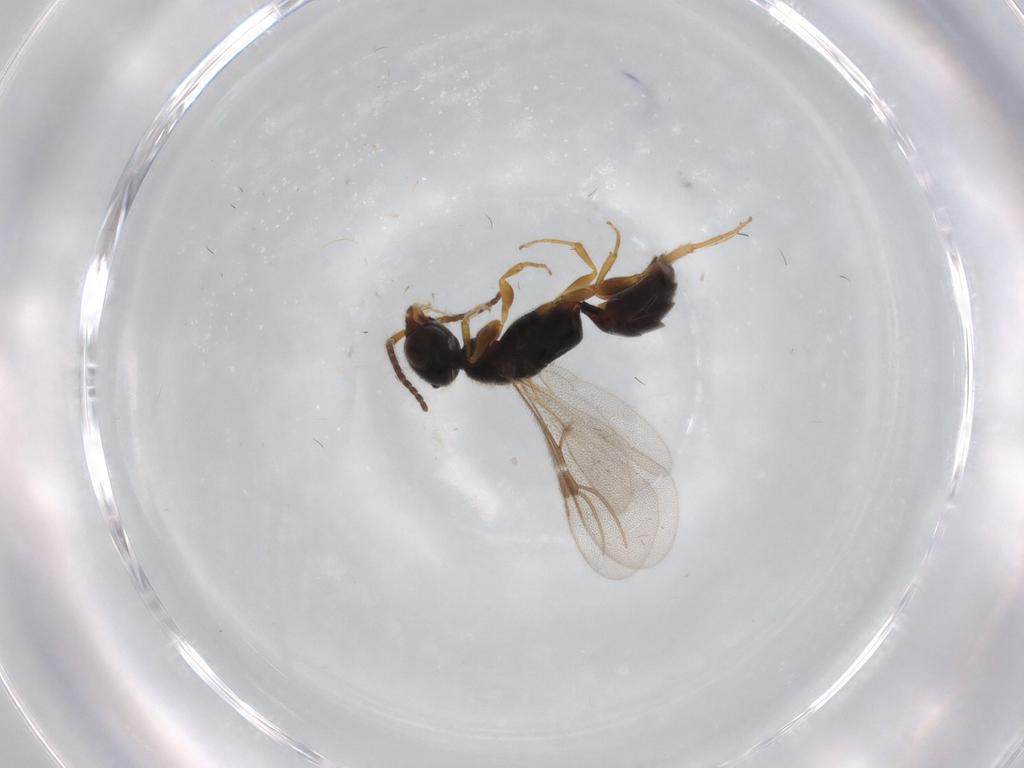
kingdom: Animalia
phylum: Arthropoda
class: Insecta
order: Hymenoptera
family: Bethylidae
